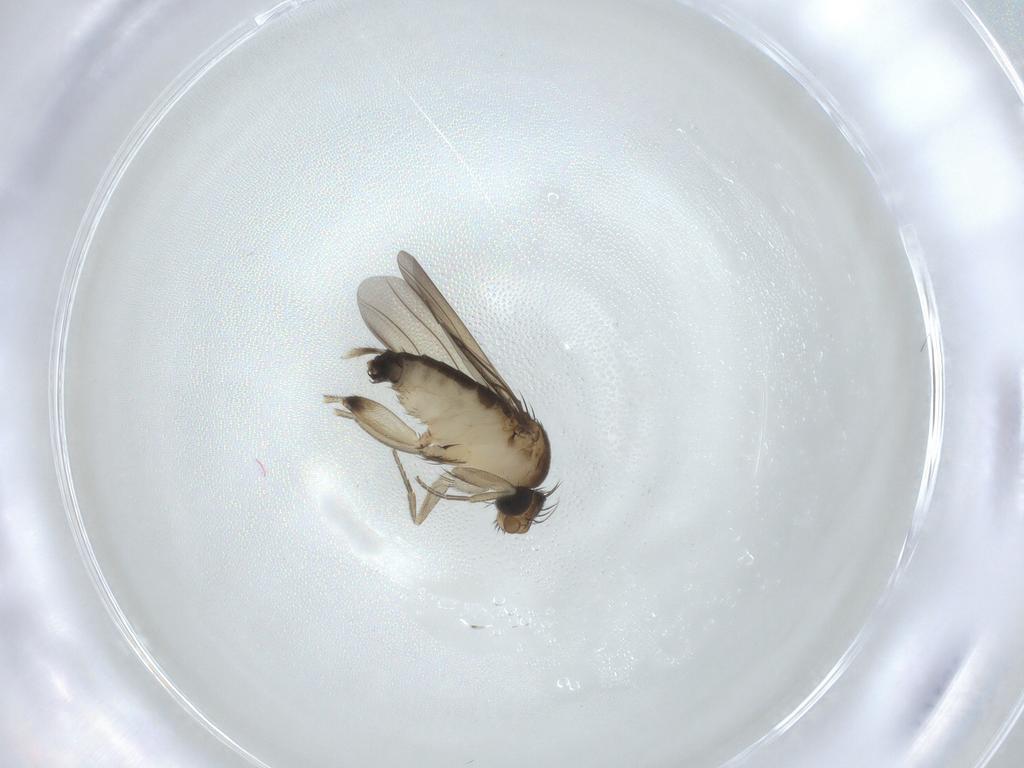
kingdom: Animalia
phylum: Arthropoda
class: Insecta
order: Diptera
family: Phoridae
